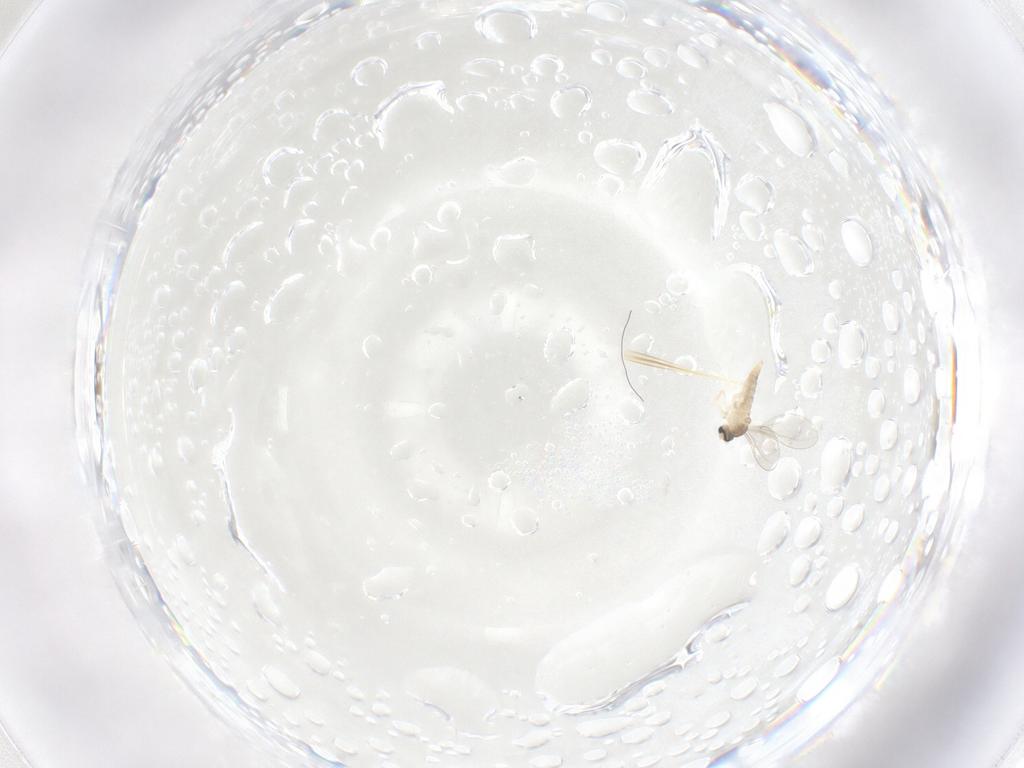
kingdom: Animalia
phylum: Arthropoda
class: Insecta
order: Diptera
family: Cecidomyiidae
